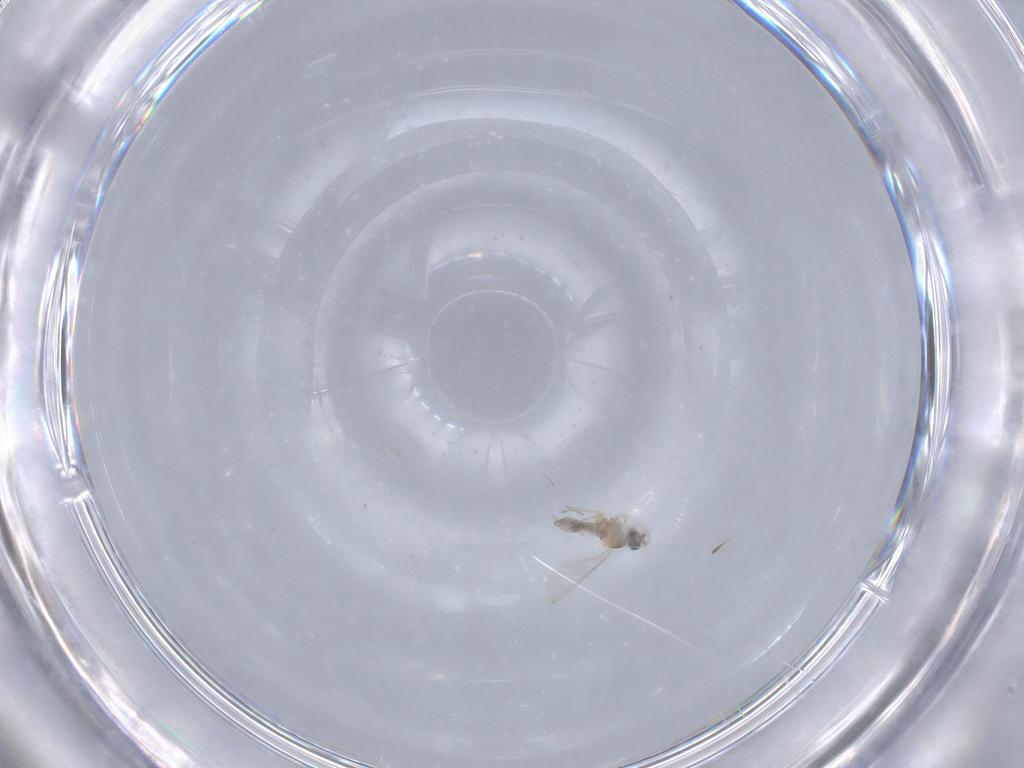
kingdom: Animalia
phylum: Arthropoda
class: Insecta
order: Diptera
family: Cecidomyiidae
